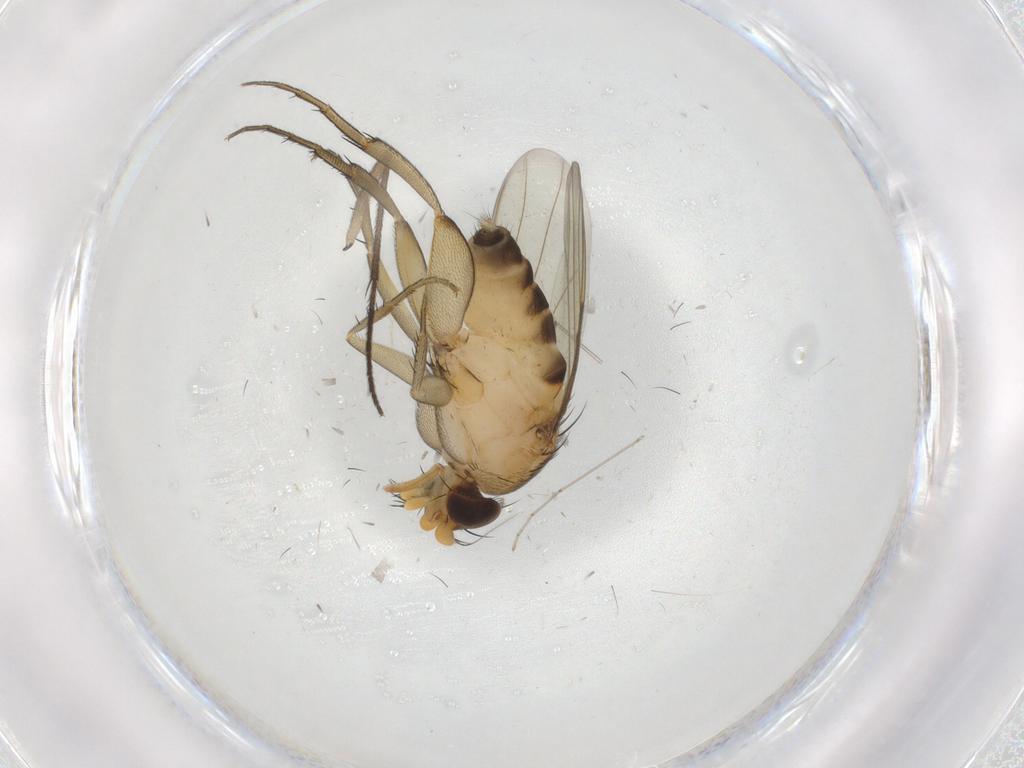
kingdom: Animalia
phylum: Arthropoda
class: Insecta
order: Diptera
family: Sciaridae
